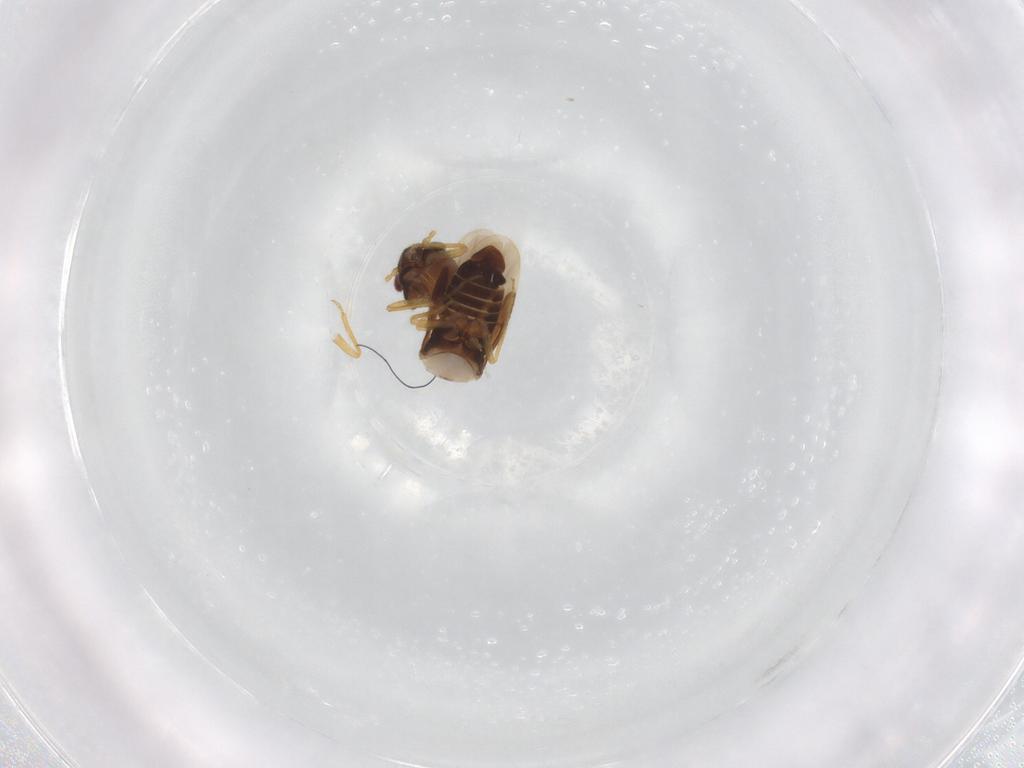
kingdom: Animalia
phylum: Arthropoda
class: Insecta
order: Hemiptera
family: Schizopteridae
